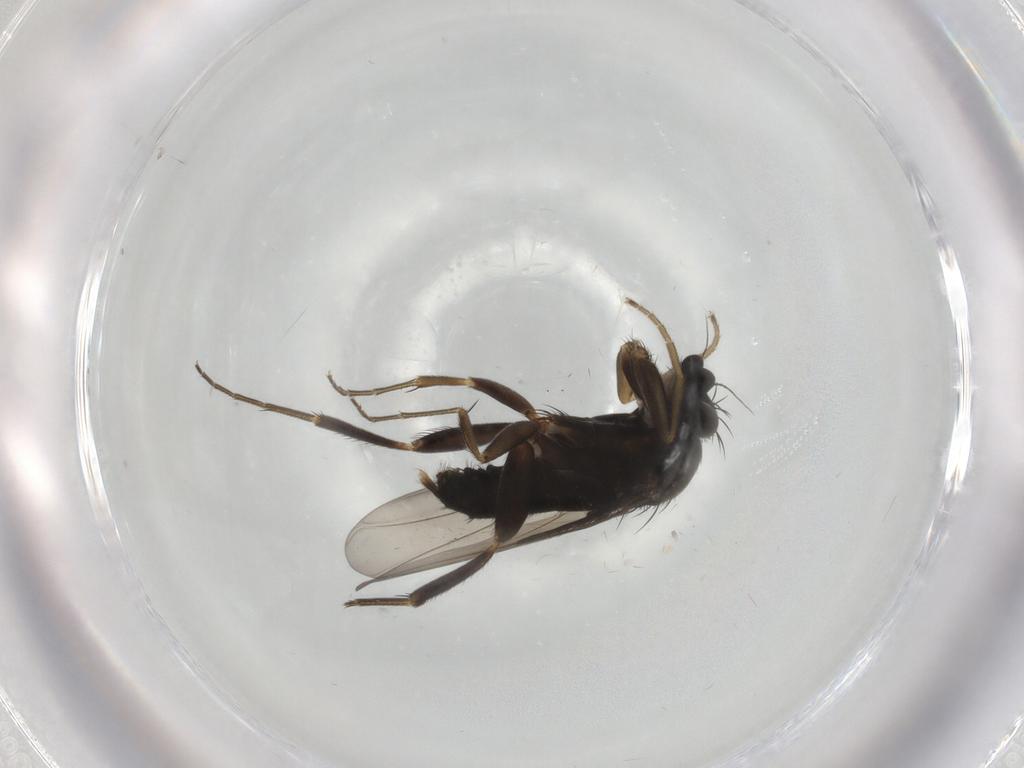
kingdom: Animalia
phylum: Arthropoda
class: Insecta
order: Diptera
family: Phoridae
